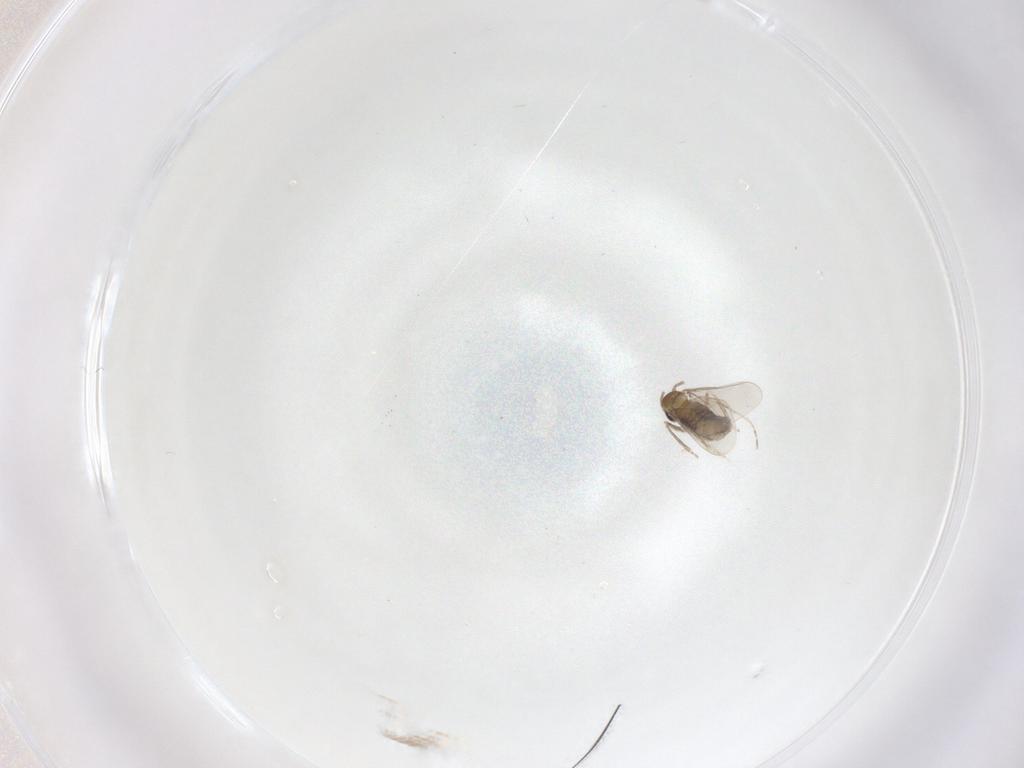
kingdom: Animalia
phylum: Arthropoda
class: Insecta
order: Diptera
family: Cecidomyiidae
